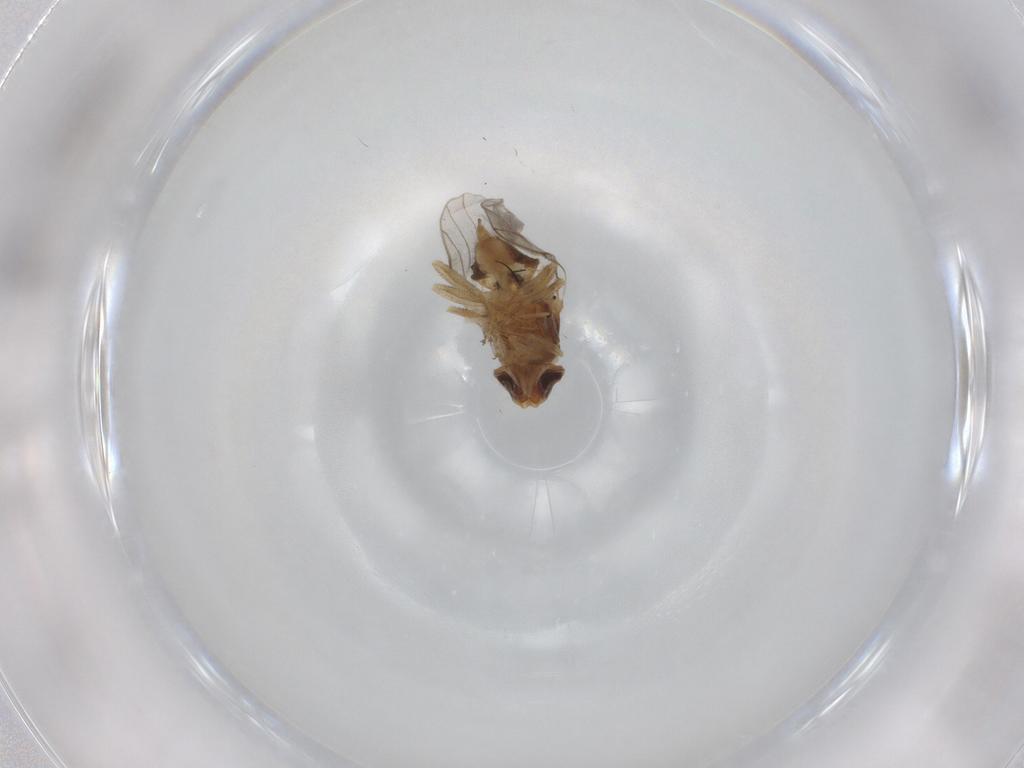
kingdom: Animalia
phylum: Arthropoda
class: Insecta
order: Diptera
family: Chloropidae
